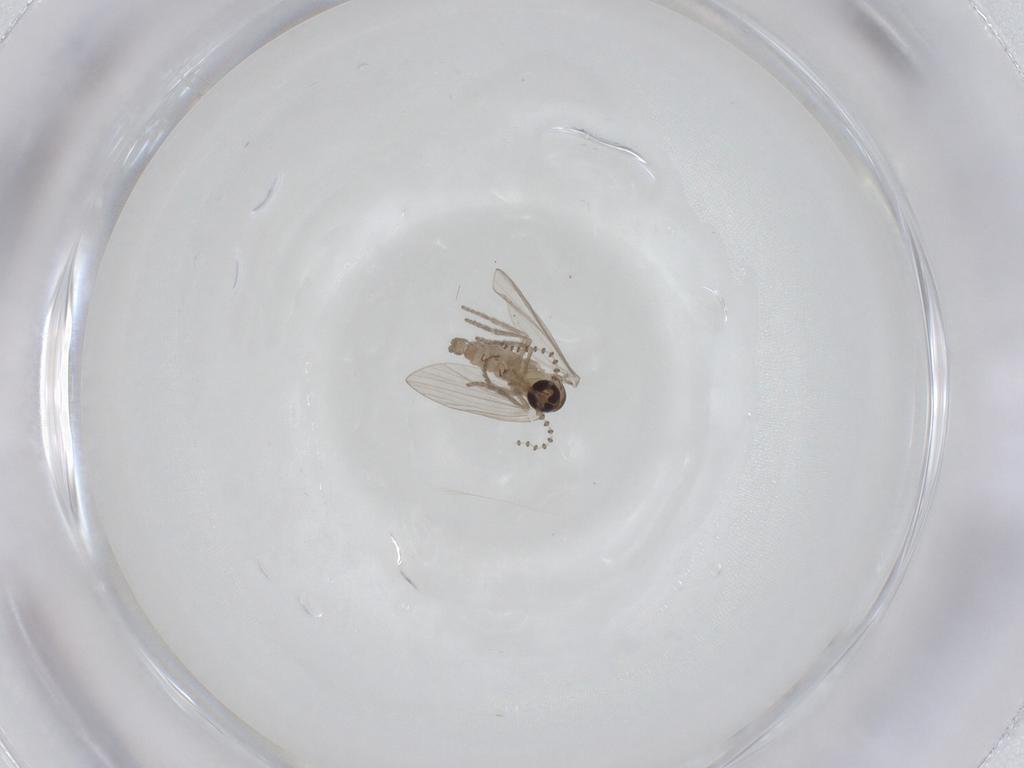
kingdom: Animalia
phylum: Arthropoda
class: Insecta
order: Diptera
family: Psychodidae
